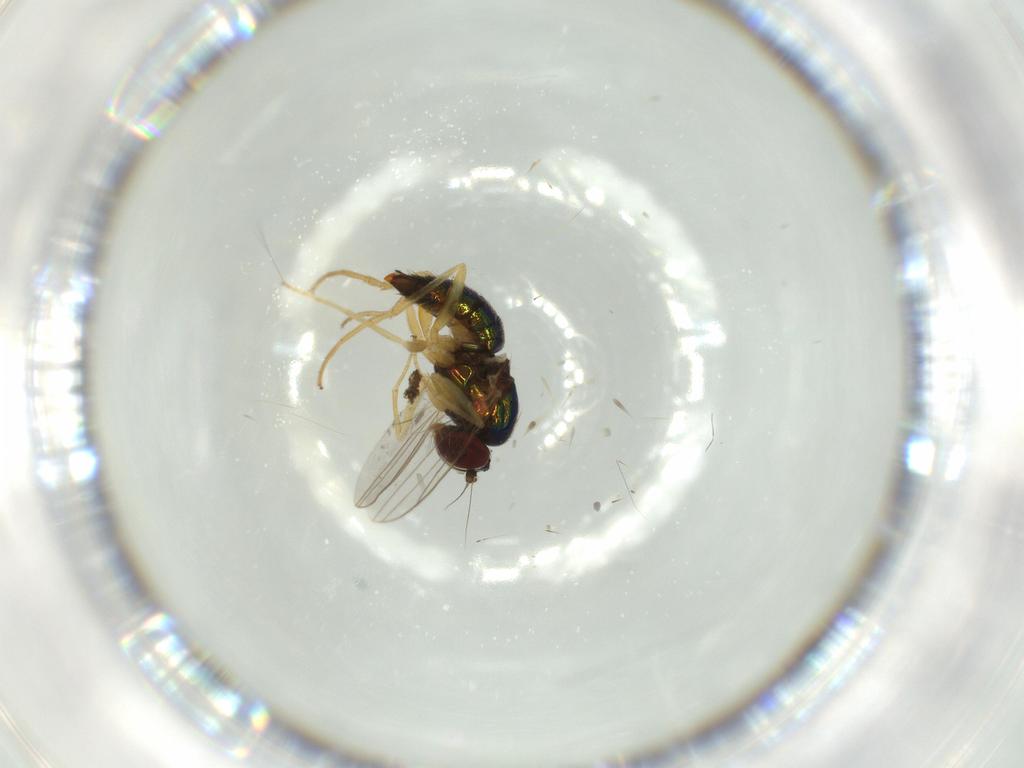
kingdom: Animalia
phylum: Arthropoda
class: Insecta
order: Diptera
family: Dolichopodidae
